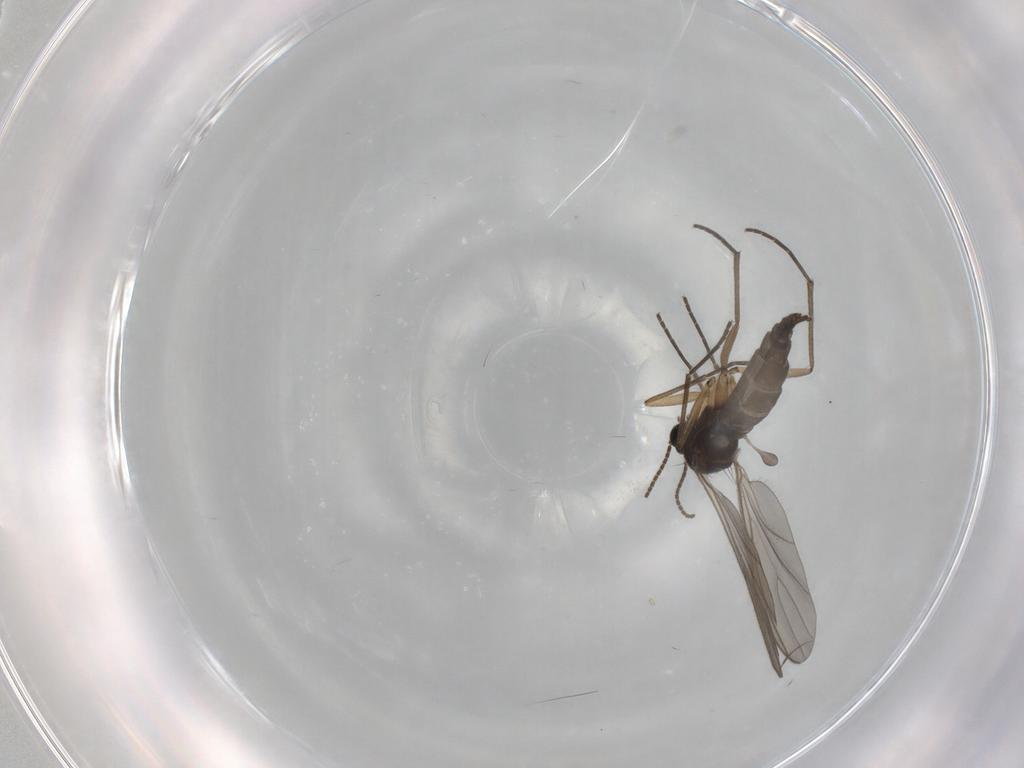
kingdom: Animalia
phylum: Arthropoda
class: Insecta
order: Diptera
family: Sciaridae
